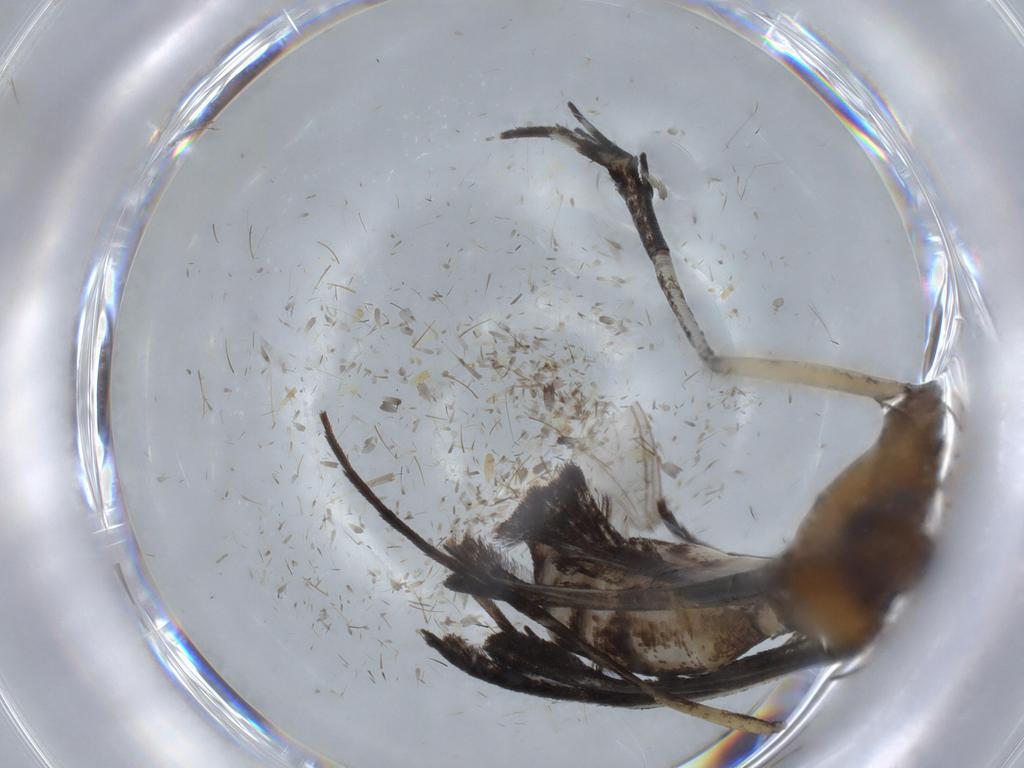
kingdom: Animalia
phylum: Arthropoda
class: Insecta
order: Lepidoptera
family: Pterophoridae
